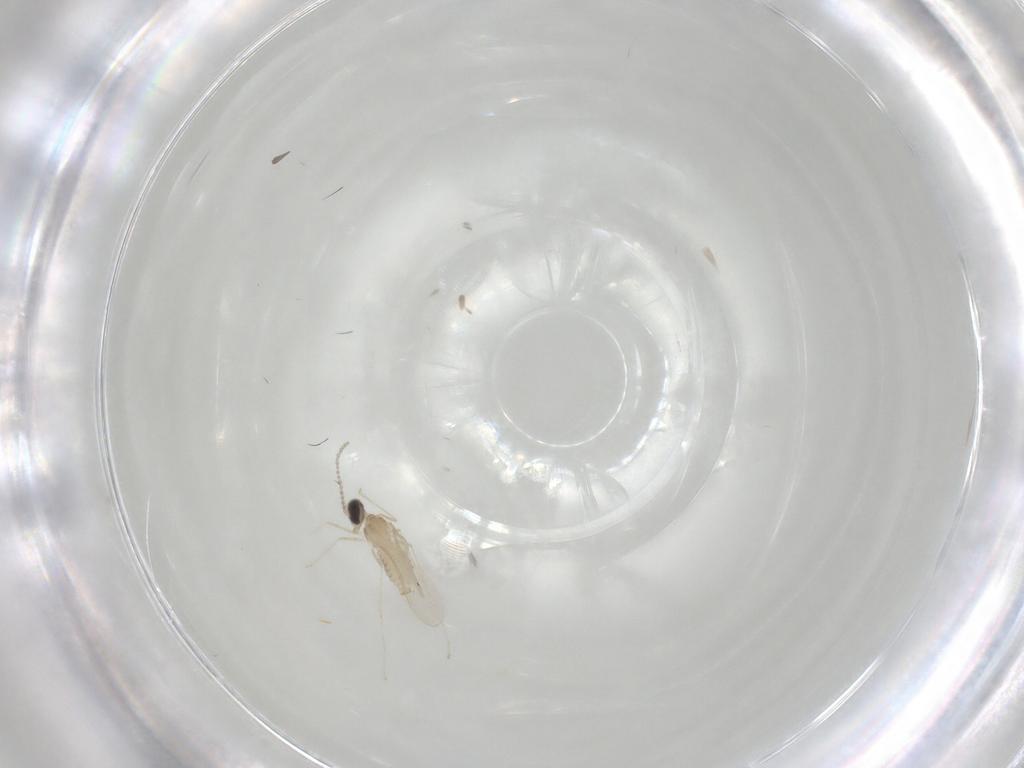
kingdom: Animalia
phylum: Arthropoda
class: Insecta
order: Diptera
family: Cecidomyiidae
